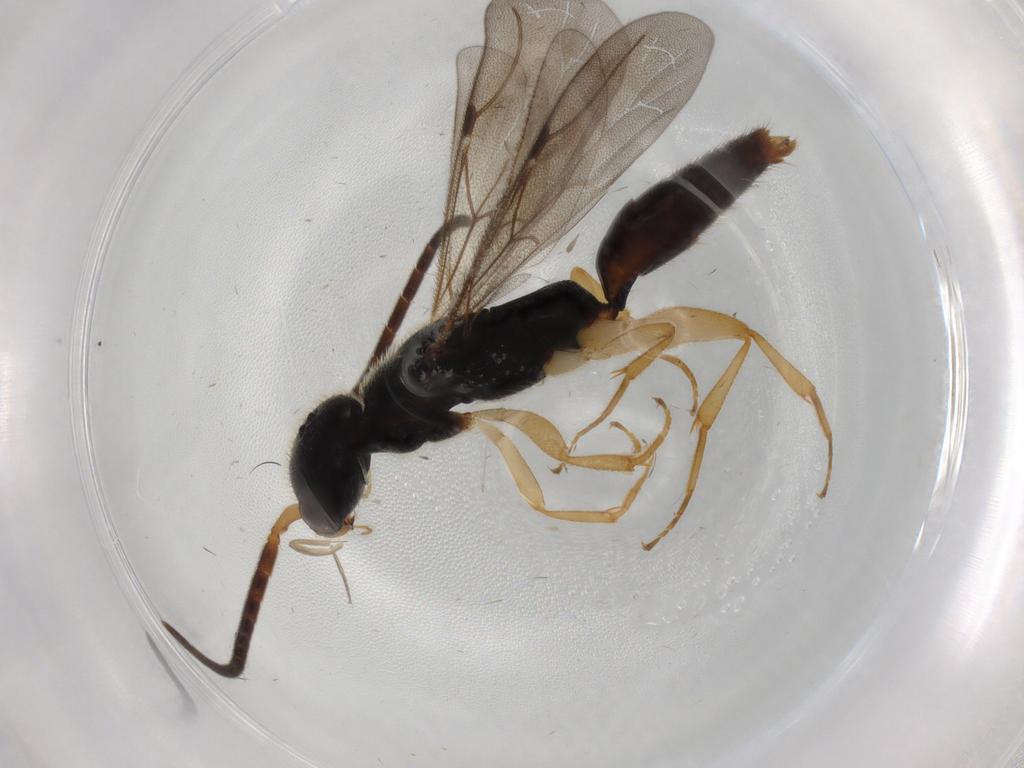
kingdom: Animalia
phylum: Arthropoda
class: Insecta
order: Hymenoptera
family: Bethylidae
